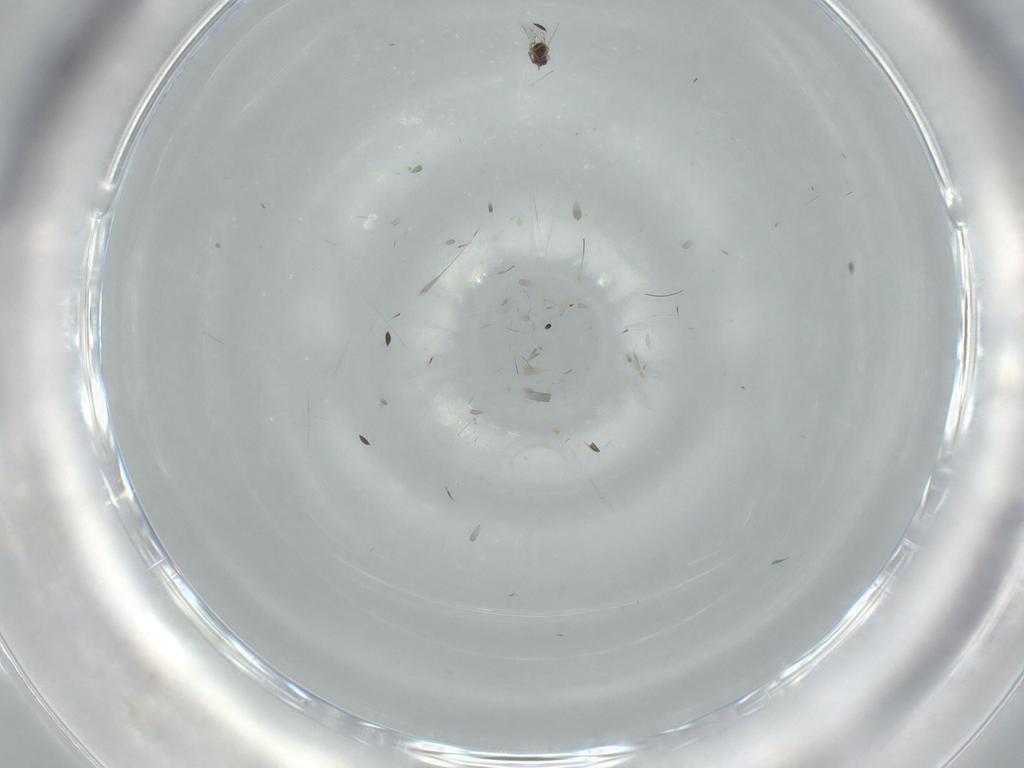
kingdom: Animalia
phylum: Arthropoda
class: Insecta
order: Hemiptera
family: Cicadellidae
